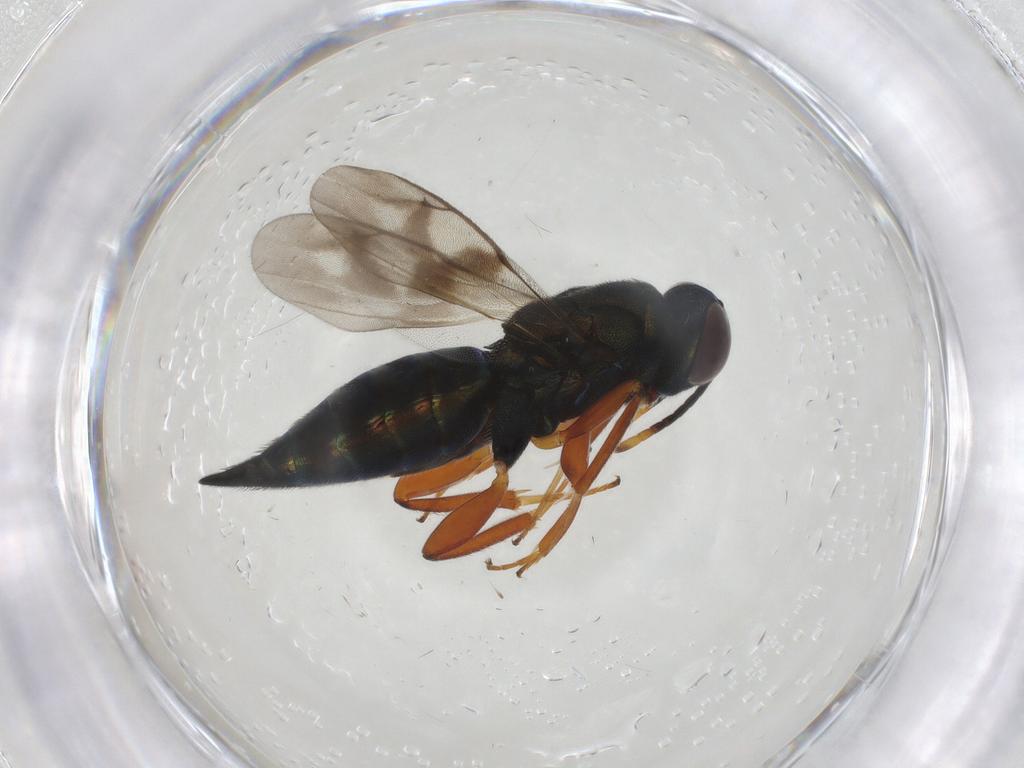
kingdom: Animalia
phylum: Arthropoda
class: Insecta
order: Hymenoptera
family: Trichogrammatidae
